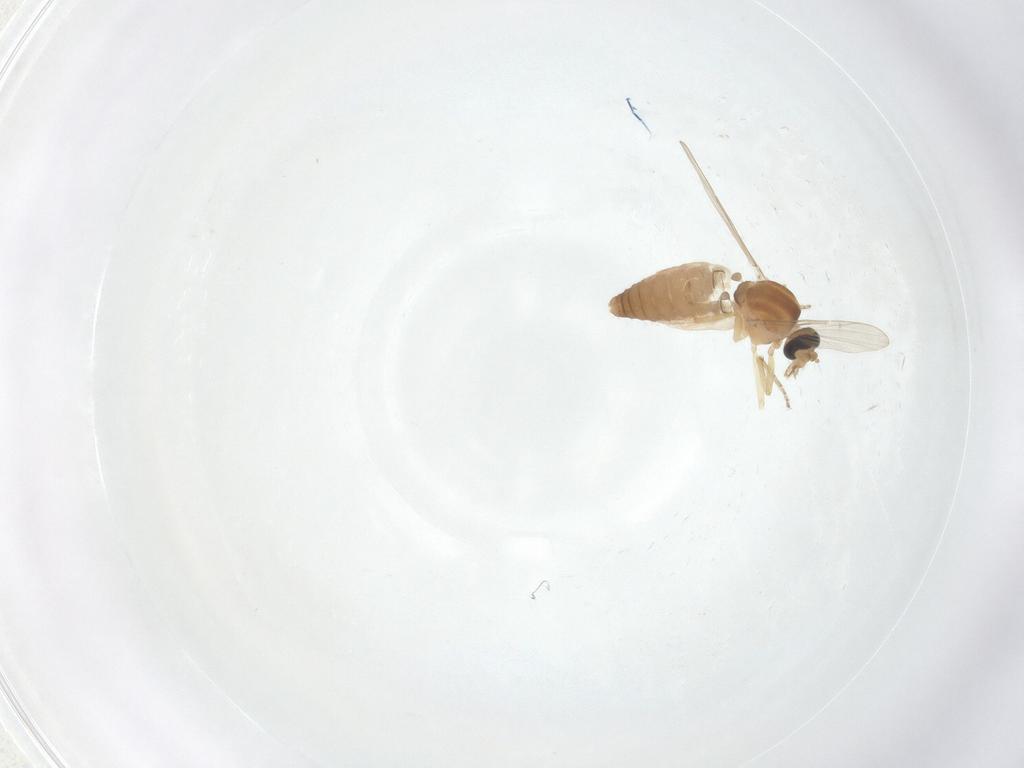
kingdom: Animalia
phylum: Arthropoda
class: Insecta
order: Diptera
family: Ceratopogonidae
